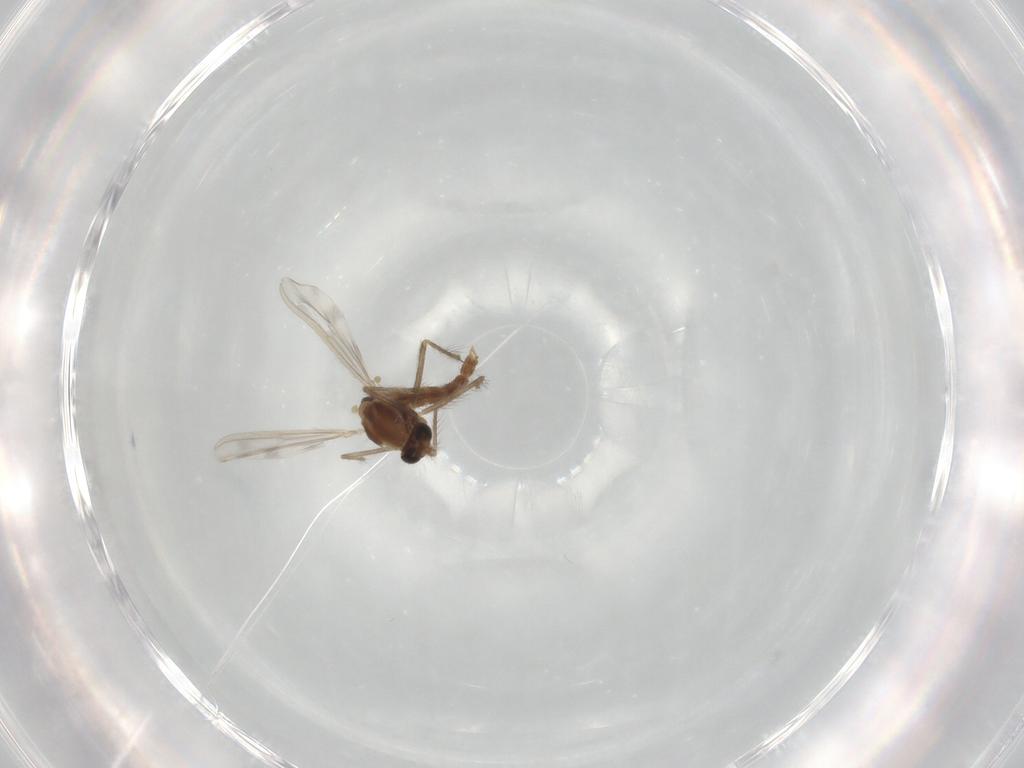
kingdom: Animalia
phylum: Arthropoda
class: Insecta
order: Diptera
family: Chironomidae
